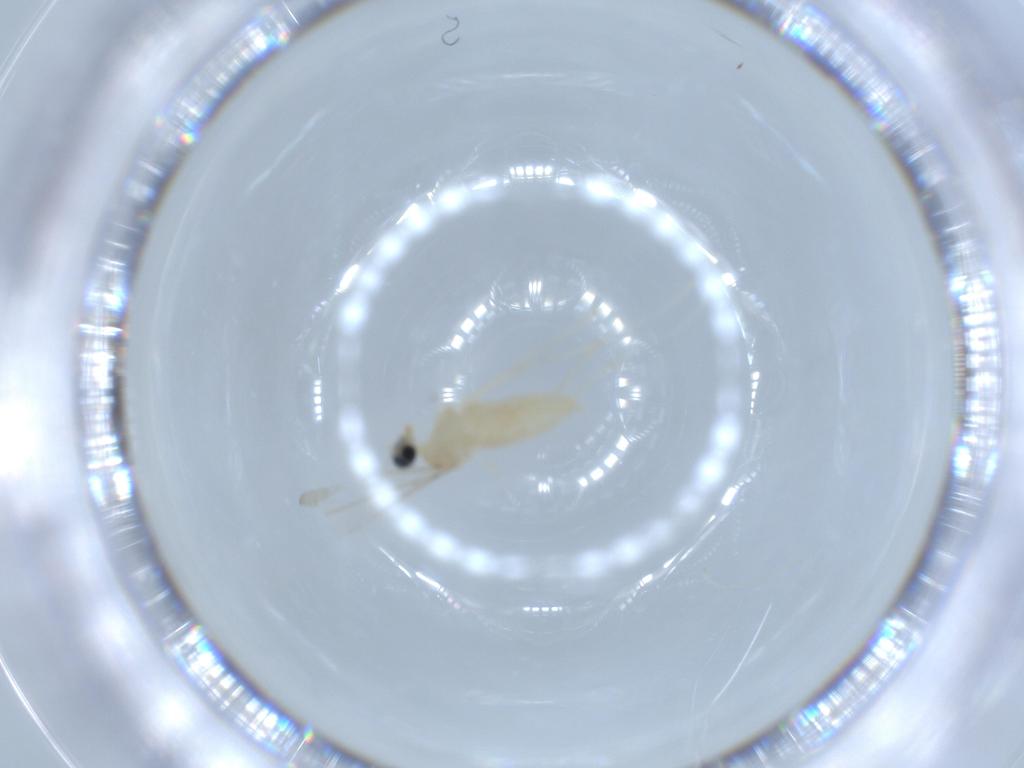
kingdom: Animalia
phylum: Arthropoda
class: Insecta
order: Diptera
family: Cecidomyiidae
